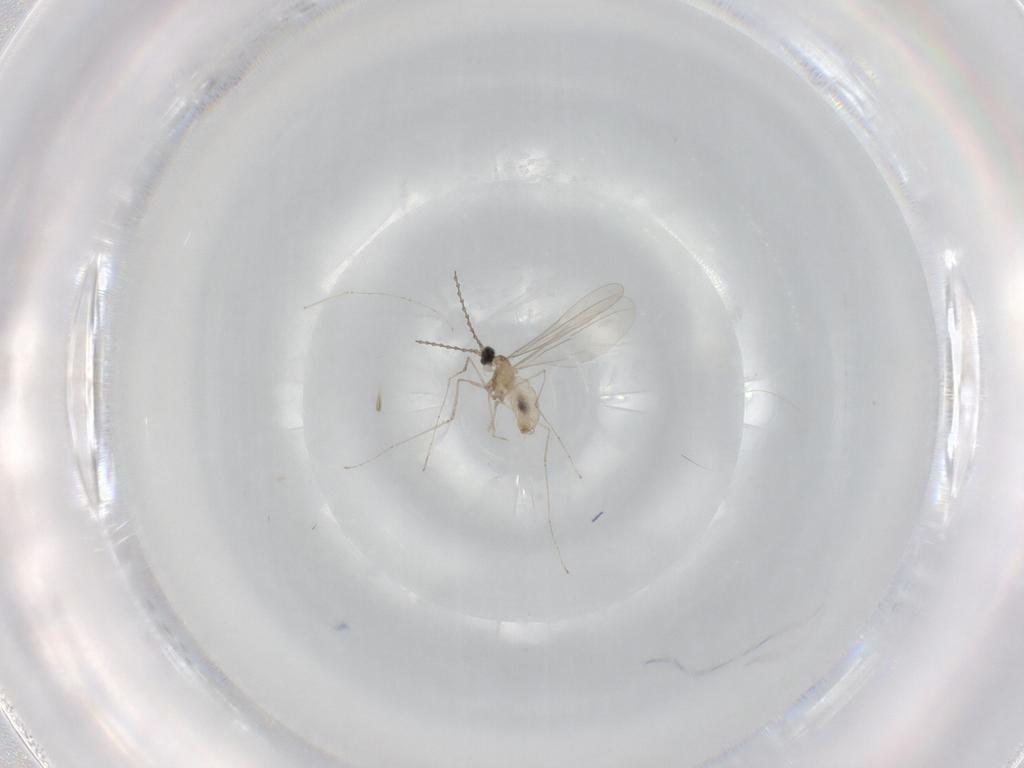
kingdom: Animalia
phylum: Arthropoda
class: Insecta
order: Diptera
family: Cecidomyiidae
